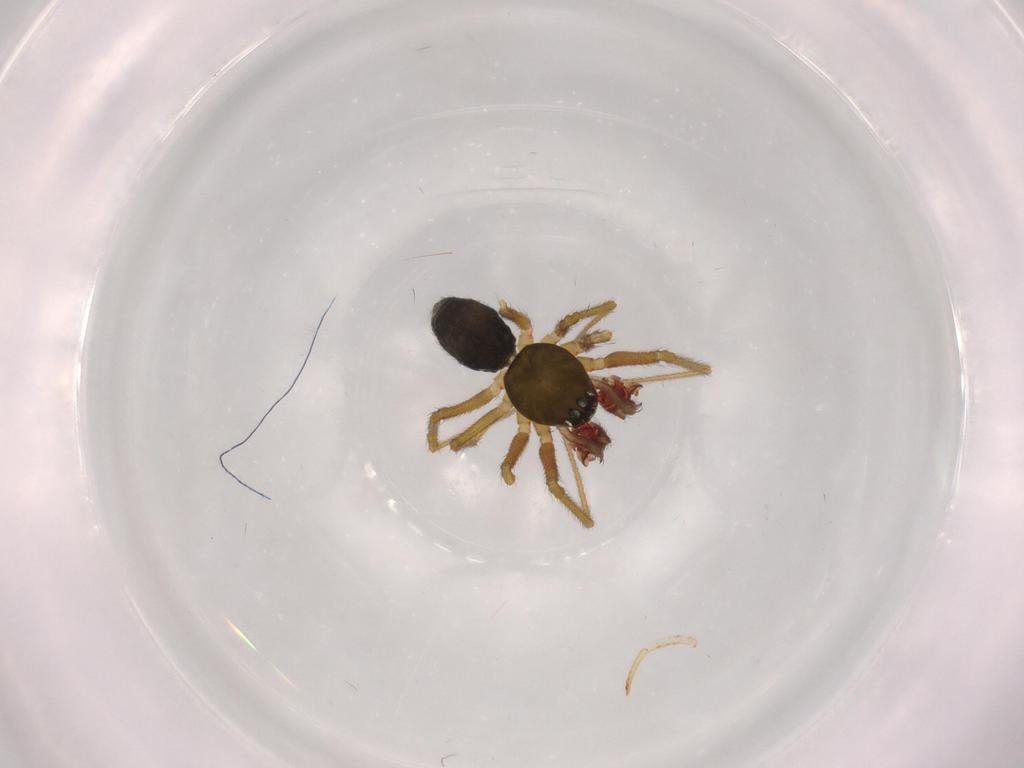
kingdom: Animalia
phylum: Arthropoda
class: Arachnida
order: Araneae
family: Linyphiidae
